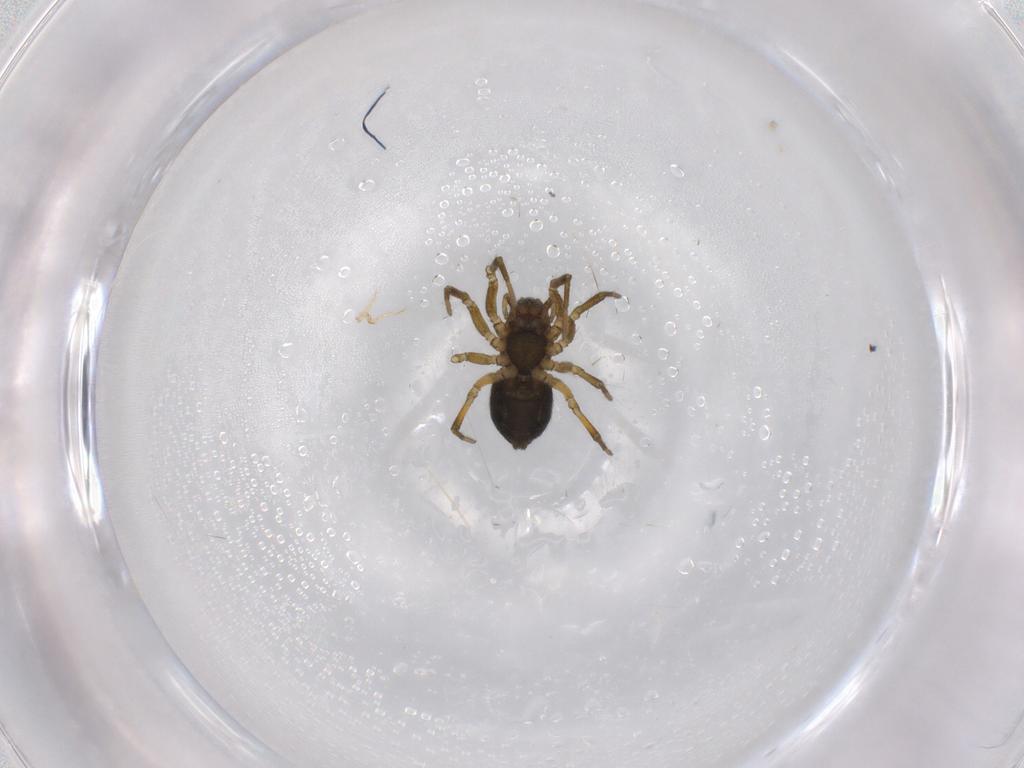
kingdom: Animalia
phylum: Arthropoda
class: Arachnida
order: Araneae
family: Linyphiidae
